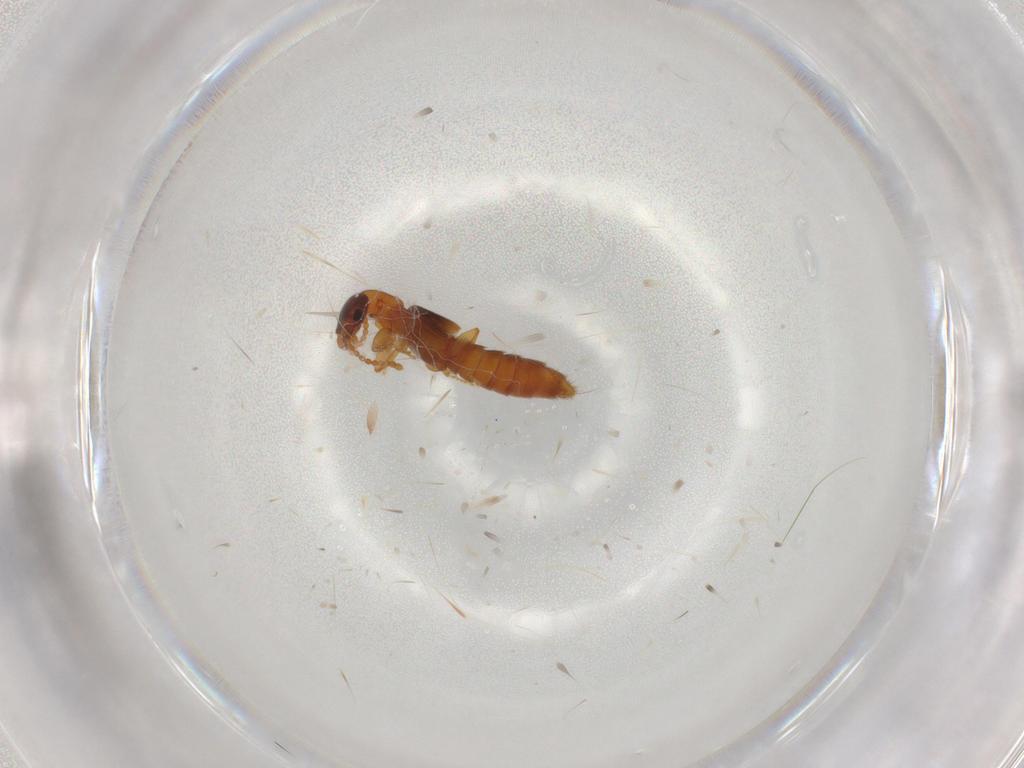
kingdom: Animalia
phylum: Arthropoda
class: Insecta
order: Coleoptera
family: Staphylinidae
